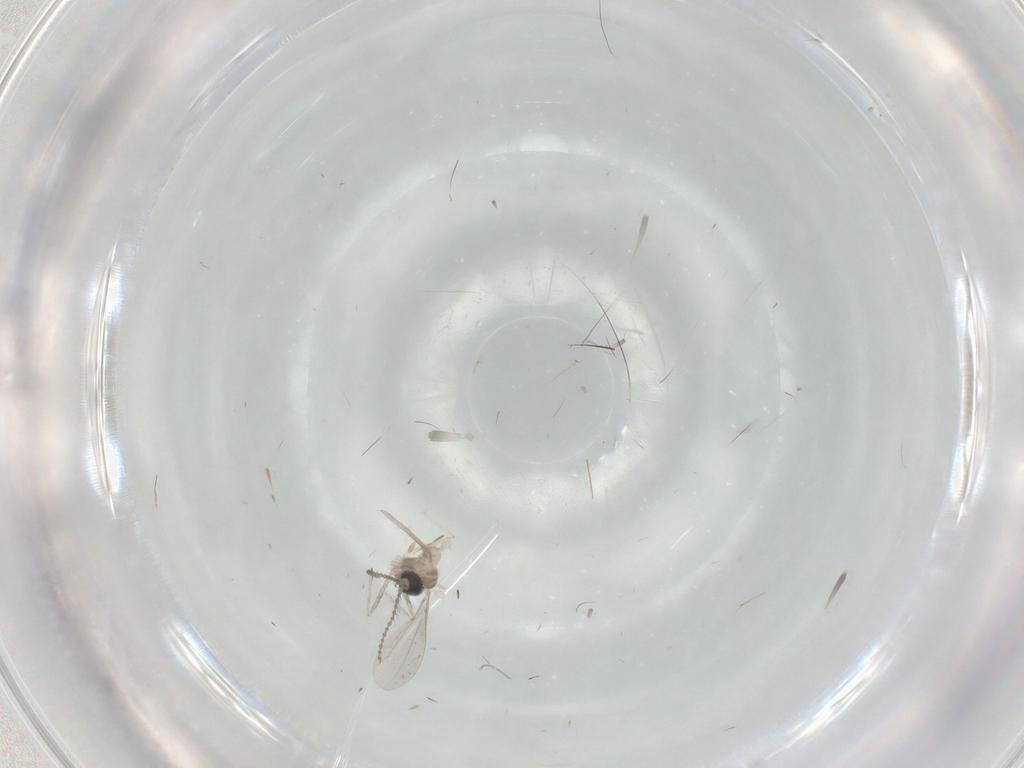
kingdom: Animalia
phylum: Arthropoda
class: Insecta
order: Diptera
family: Cecidomyiidae
